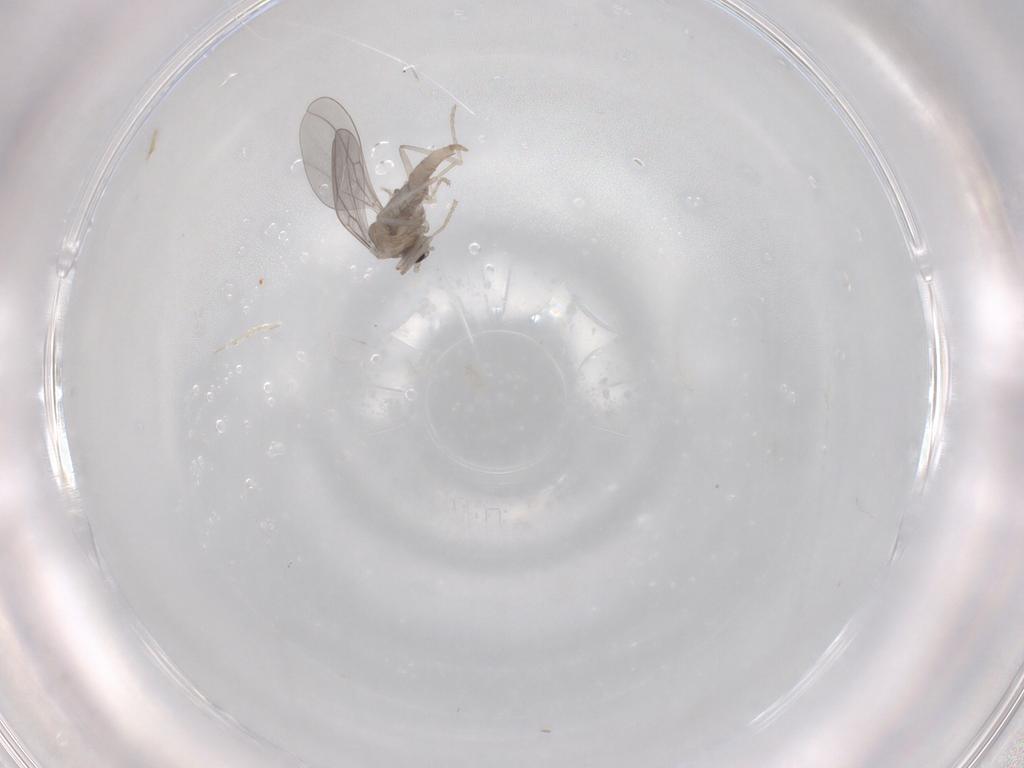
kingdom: Animalia
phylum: Arthropoda
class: Insecta
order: Diptera
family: Cecidomyiidae
